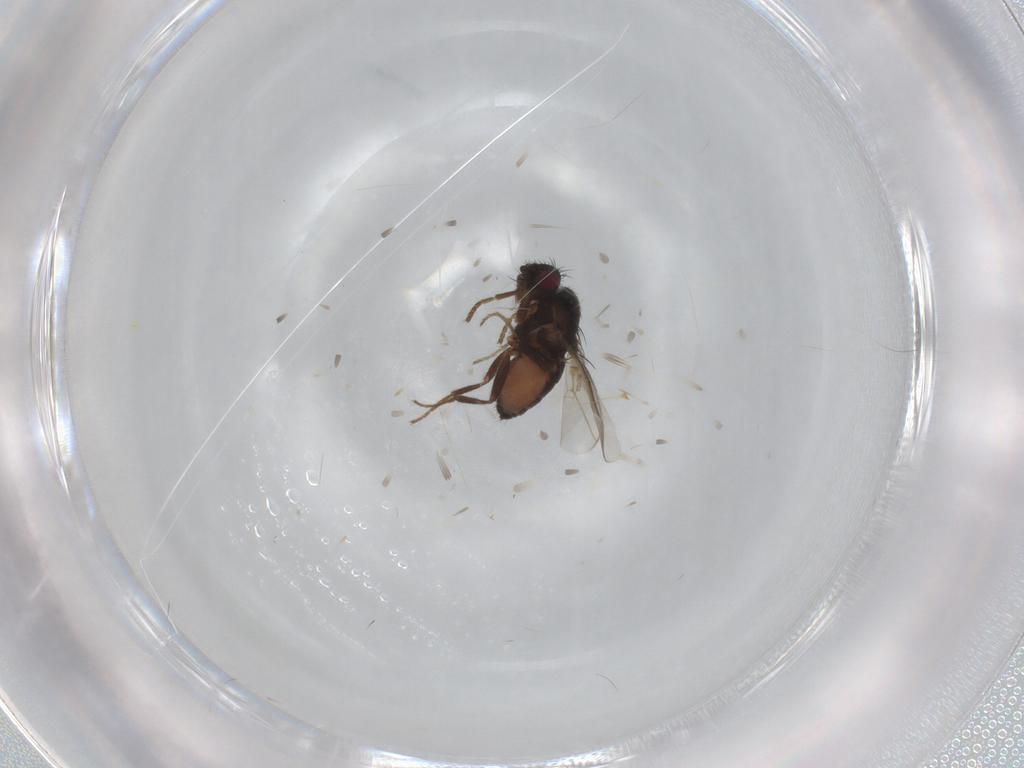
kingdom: Animalia
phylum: Arthropoda
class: Insecta
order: Diptera
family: Sphaeroceridae
